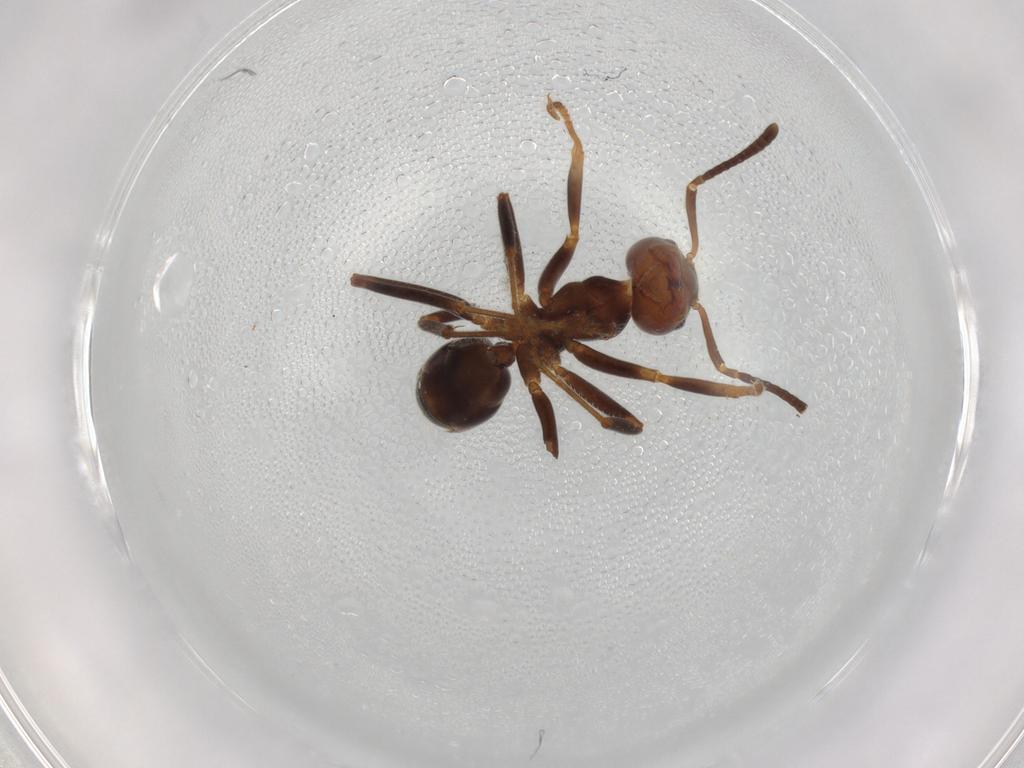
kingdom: Animalia
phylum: Arthropoda
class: Insecta
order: Hymenoptera
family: Formicidae
